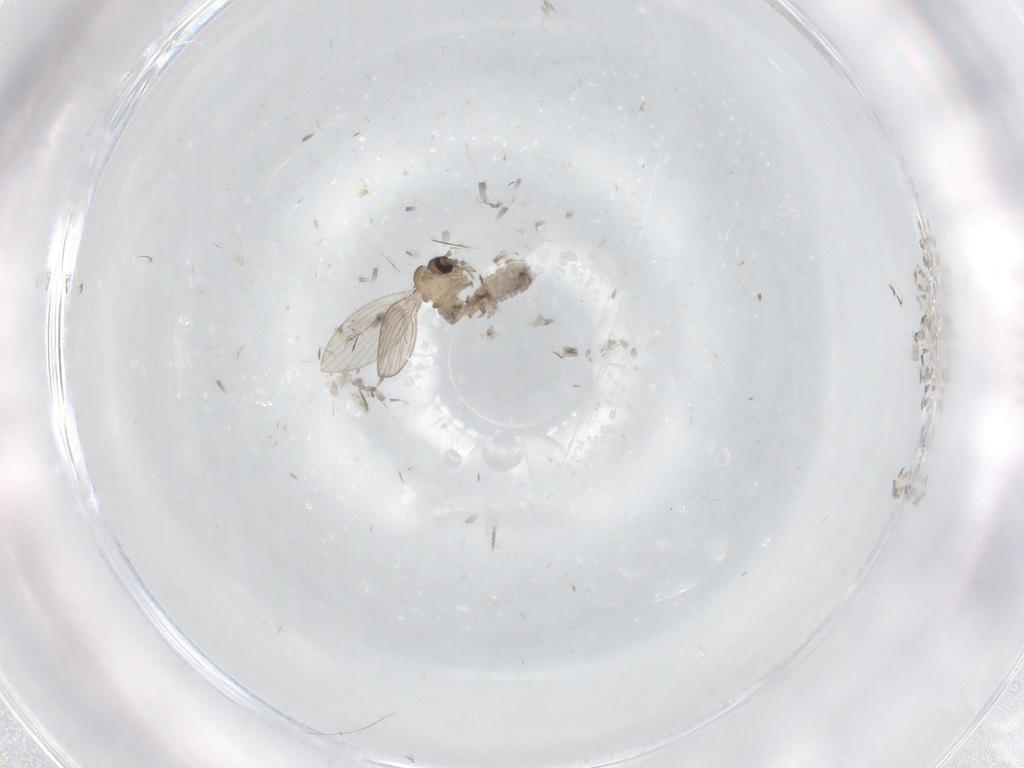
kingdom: Animalia
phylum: Arthropoda
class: Insecta
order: Diptera
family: Psychodidae
